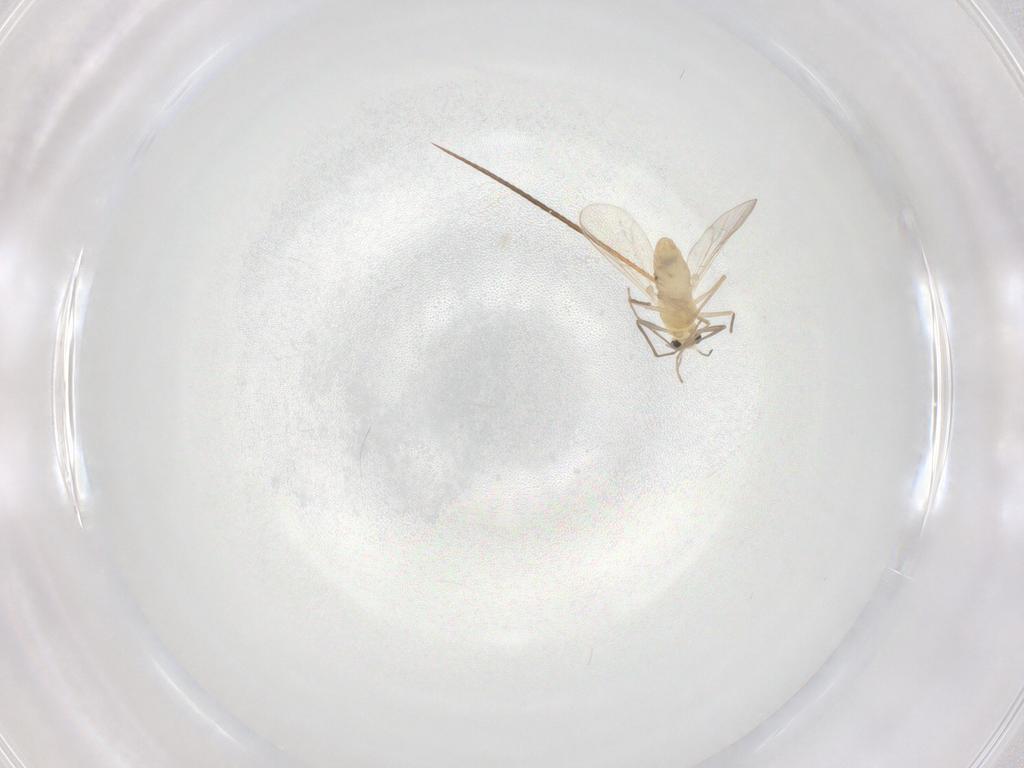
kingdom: Animalia
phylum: Arthropoda
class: Insecta
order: Diptera
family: Chironomidae
